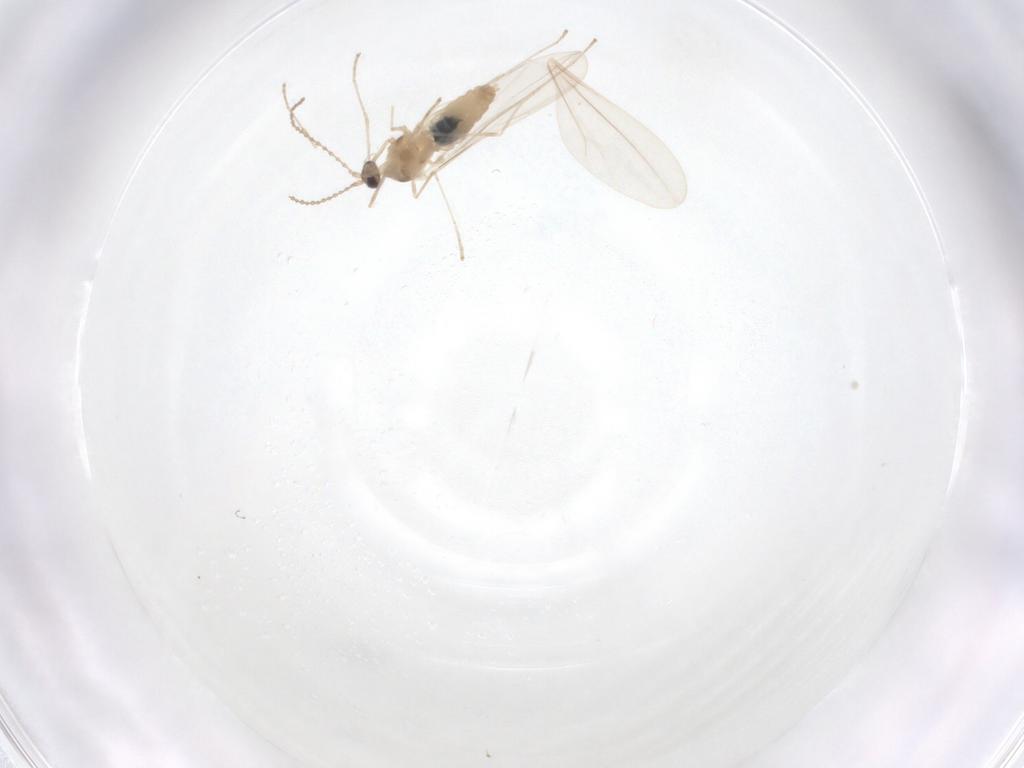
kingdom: Animalia
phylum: Arthropoda
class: Insecta
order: Diptera
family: Cecidomyiidae
